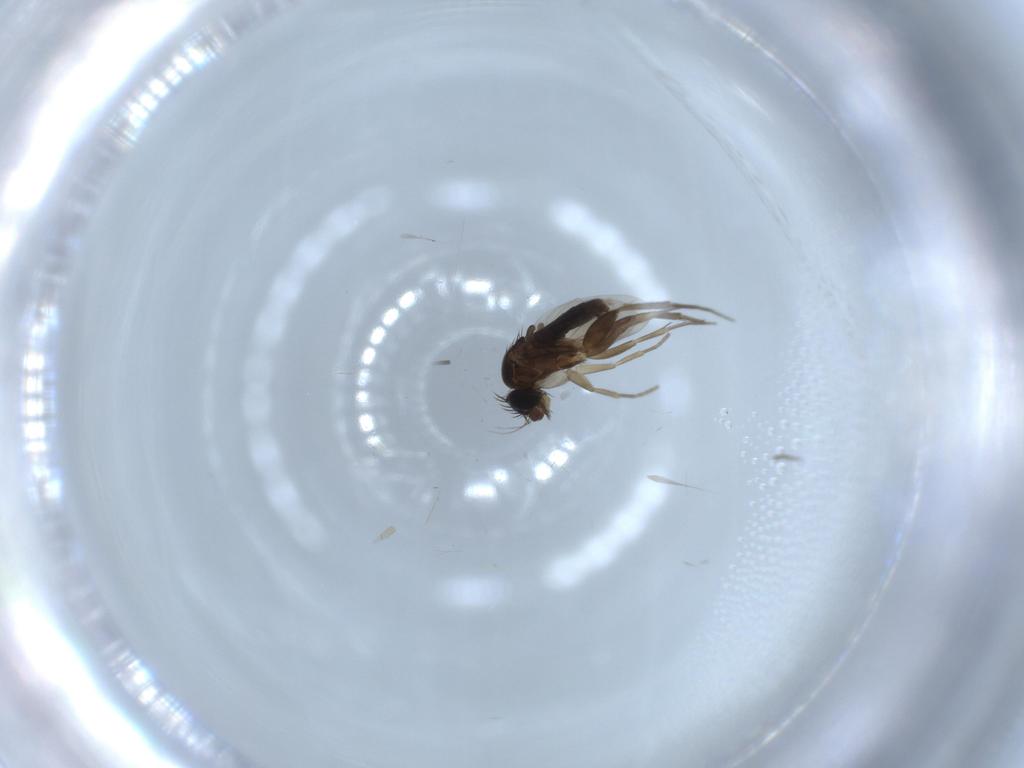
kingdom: Animalia
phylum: Arthropoda
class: Insecta
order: Diptera
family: Phoridae
